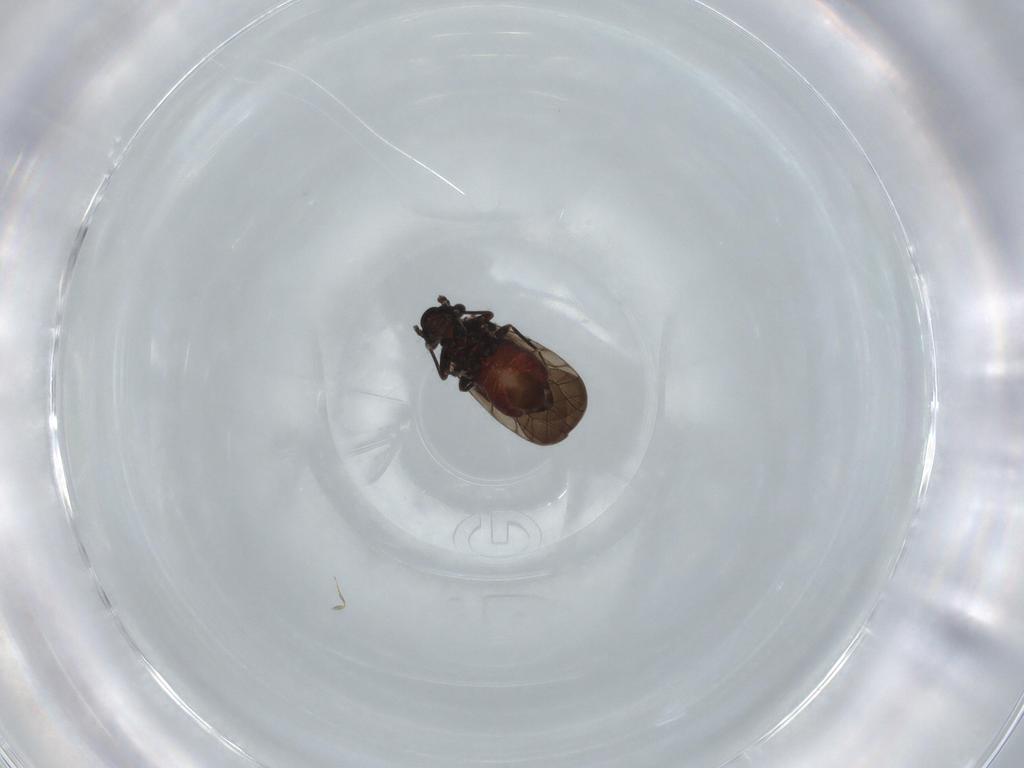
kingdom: Animalia
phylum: Arthropoda
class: Insecta
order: Psocodea
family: Lepidopsocidae
